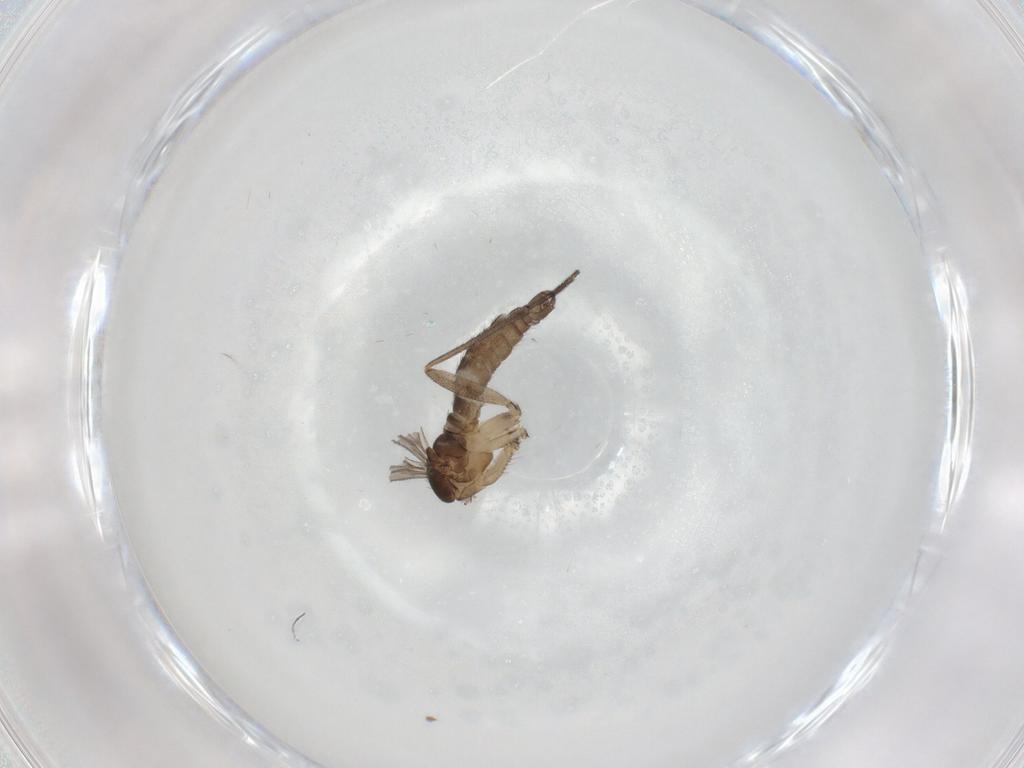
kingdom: Animalia
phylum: Arthropoda
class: Insecta
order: Diptera
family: Sciaridae
